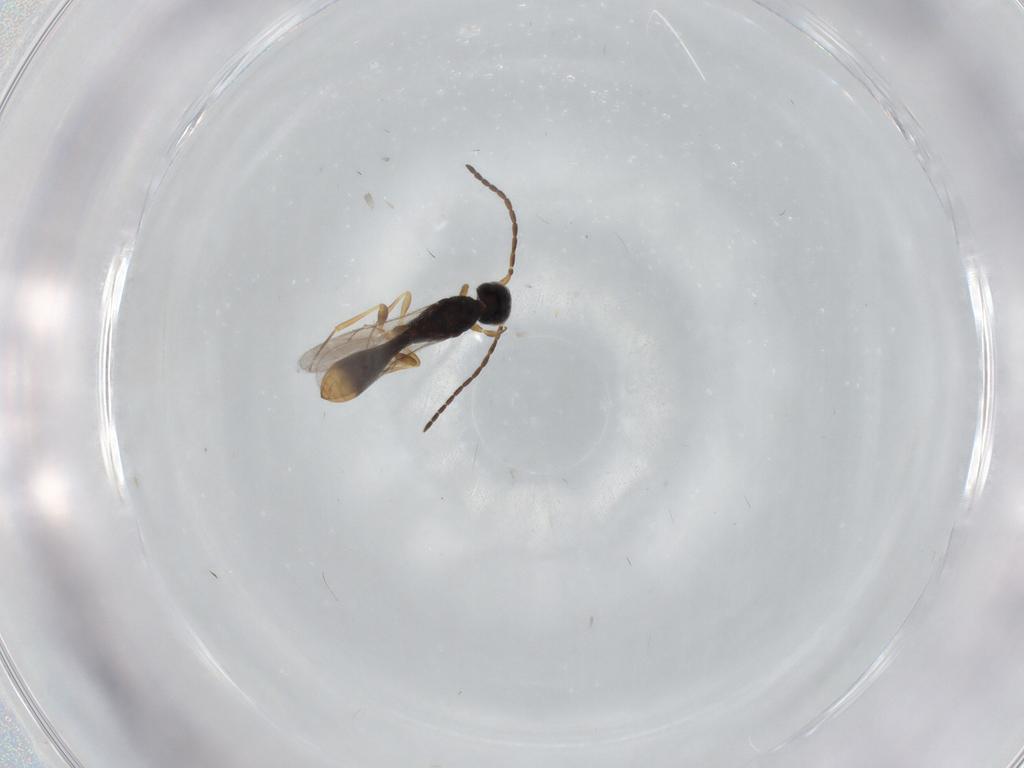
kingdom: Animalia
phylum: Arthropoda
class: Insecta
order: Hymenoptera
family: Scelionidae
